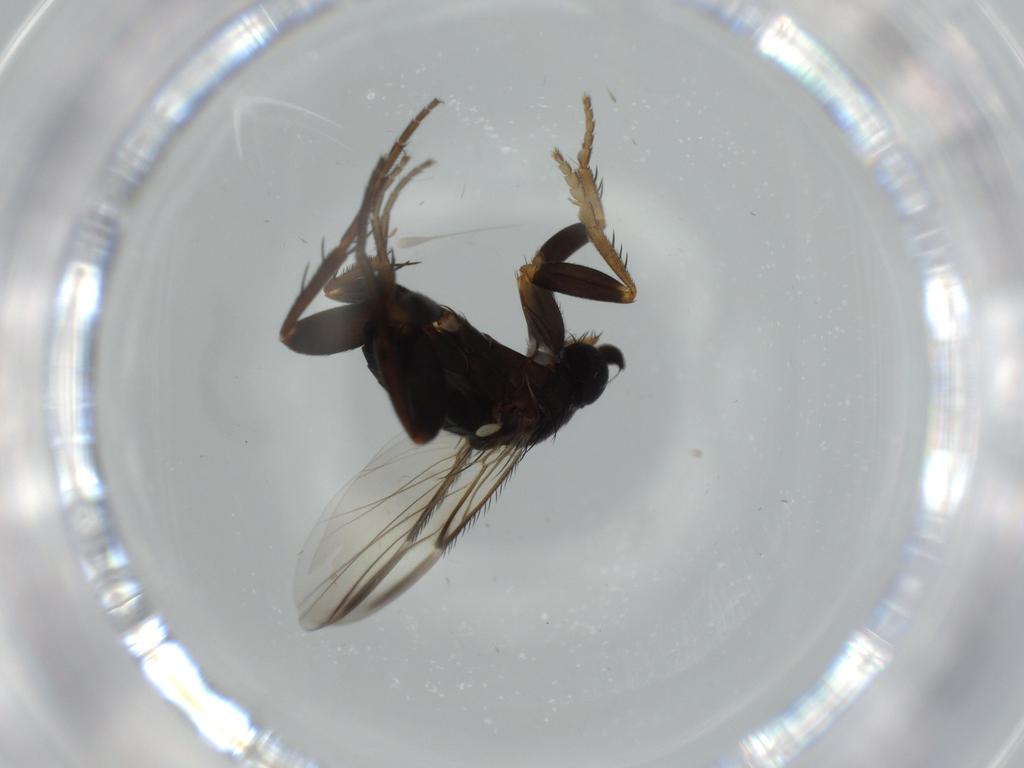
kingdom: Animalia
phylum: Arthropoda
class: Insecta
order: Diptera
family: Phoridae
